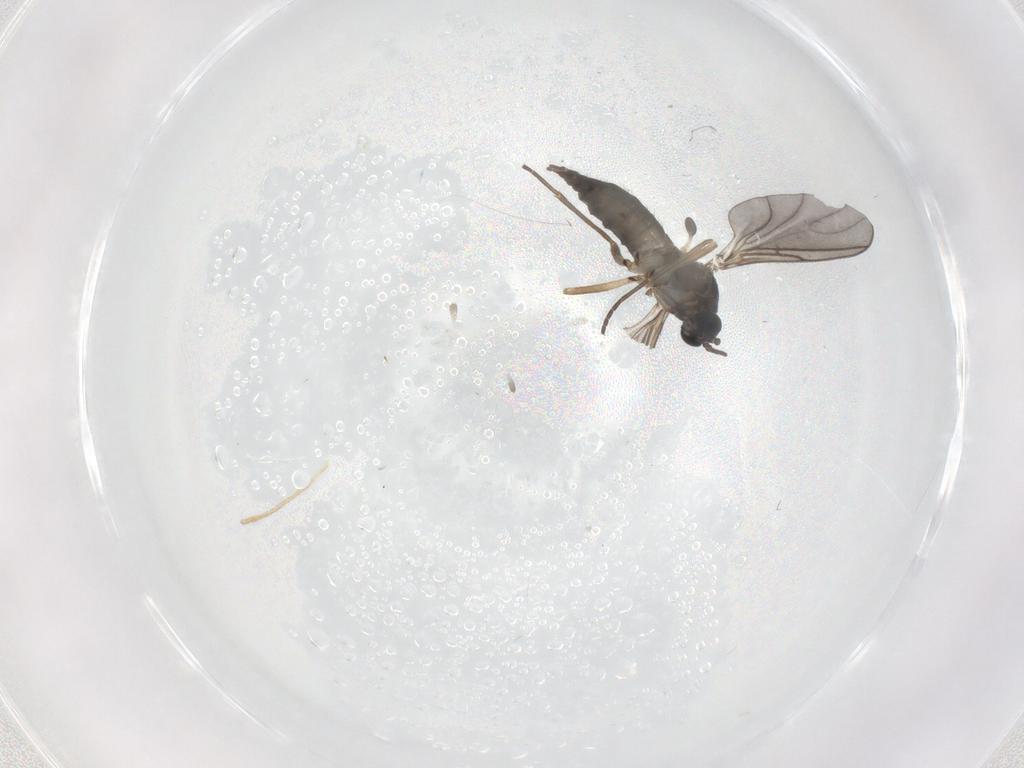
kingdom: Animalia
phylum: Arthropoda
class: Insecta
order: Diptera
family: Sciaridae
